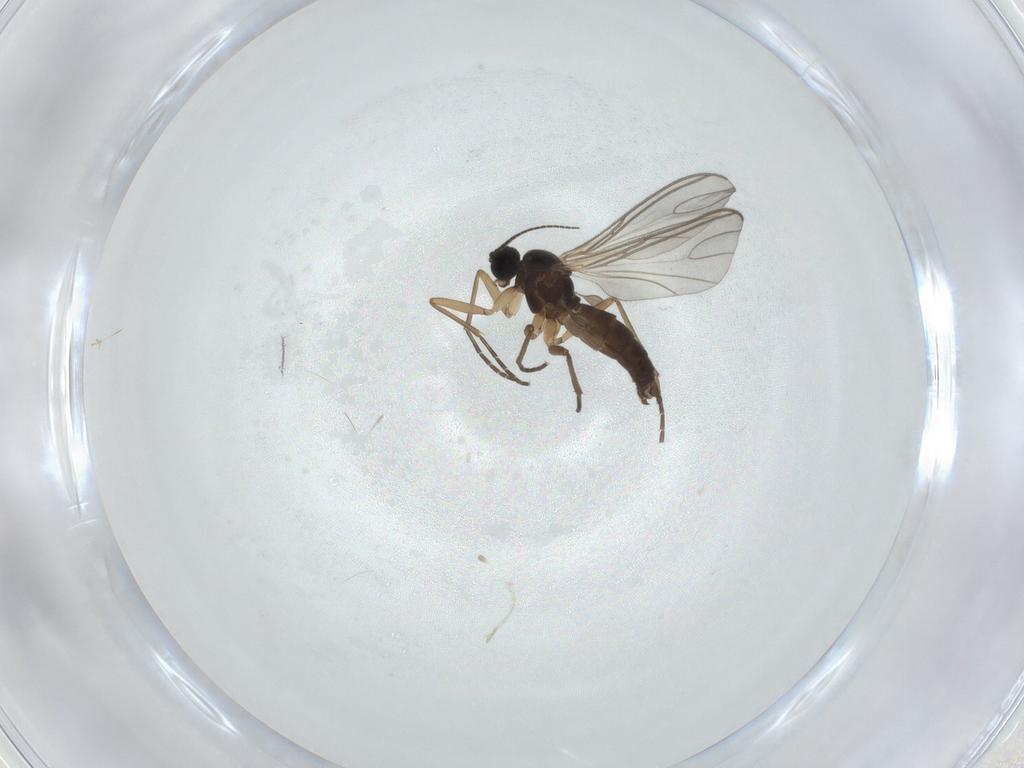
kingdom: Animalia
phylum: Arthropoda
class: Insecta
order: Diptera
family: Sciaridae
